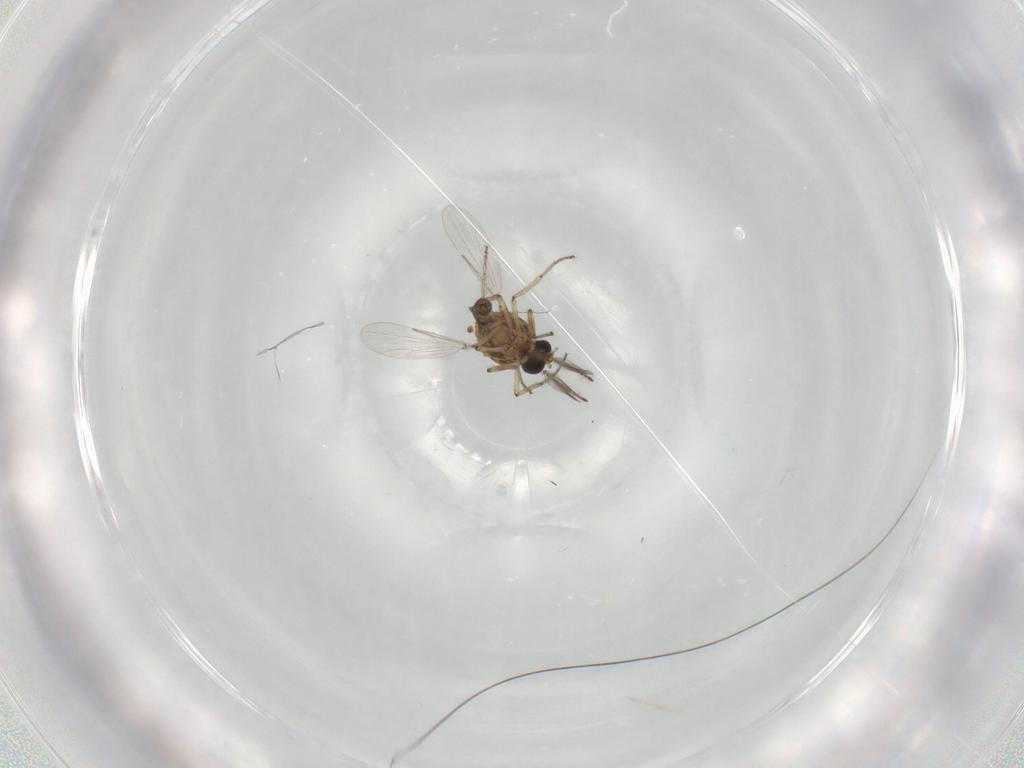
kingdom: Animalia
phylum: Arthropoda
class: Insecta
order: Diptera
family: Ceratopogonidae
